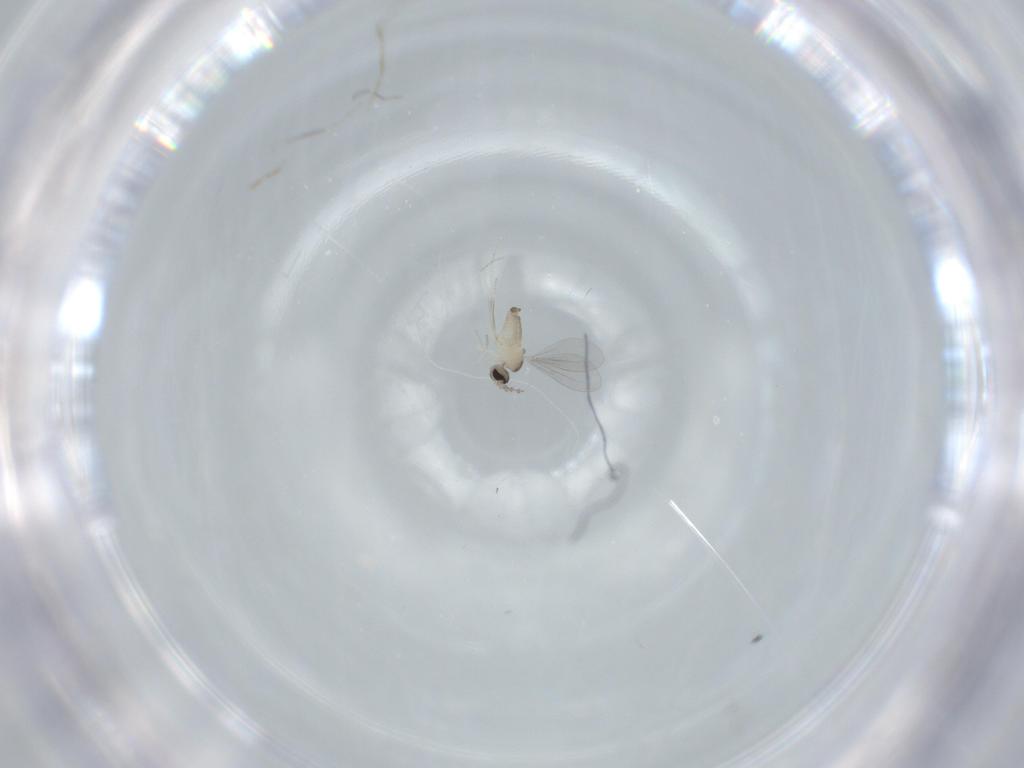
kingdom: Animalia
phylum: Arthropoda
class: Insecta
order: Diptera
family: Cecidomyiidae
